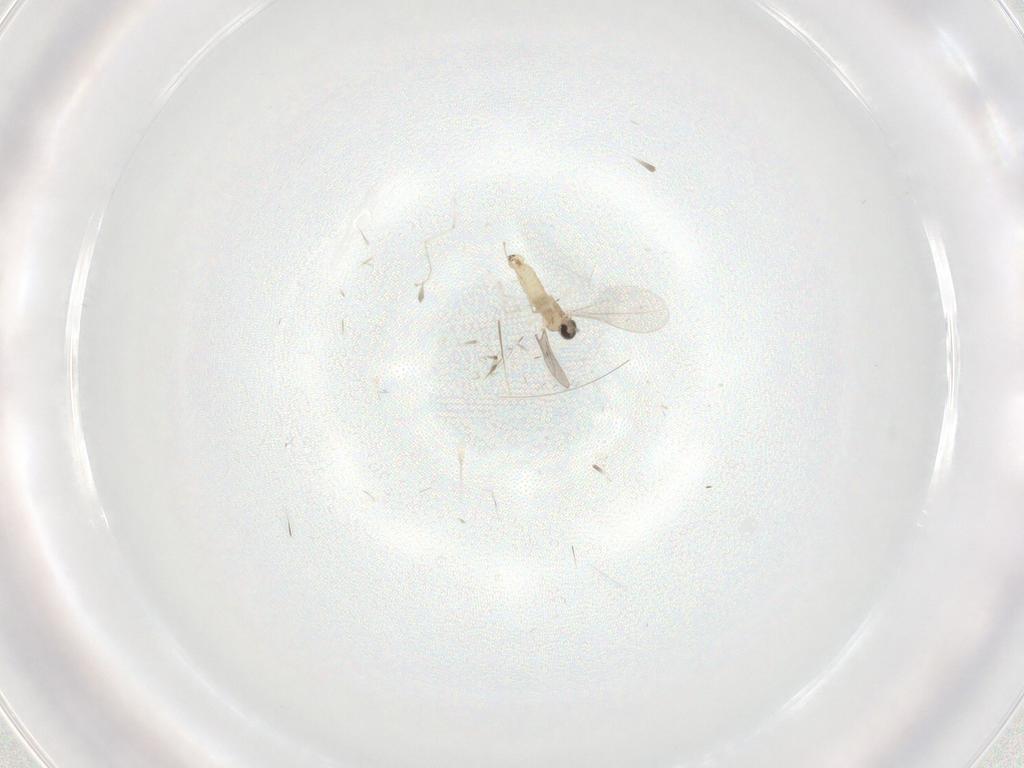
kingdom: Animalia
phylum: Arthropoda
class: Insecta
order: Diptera
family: Cecidomyiidae
